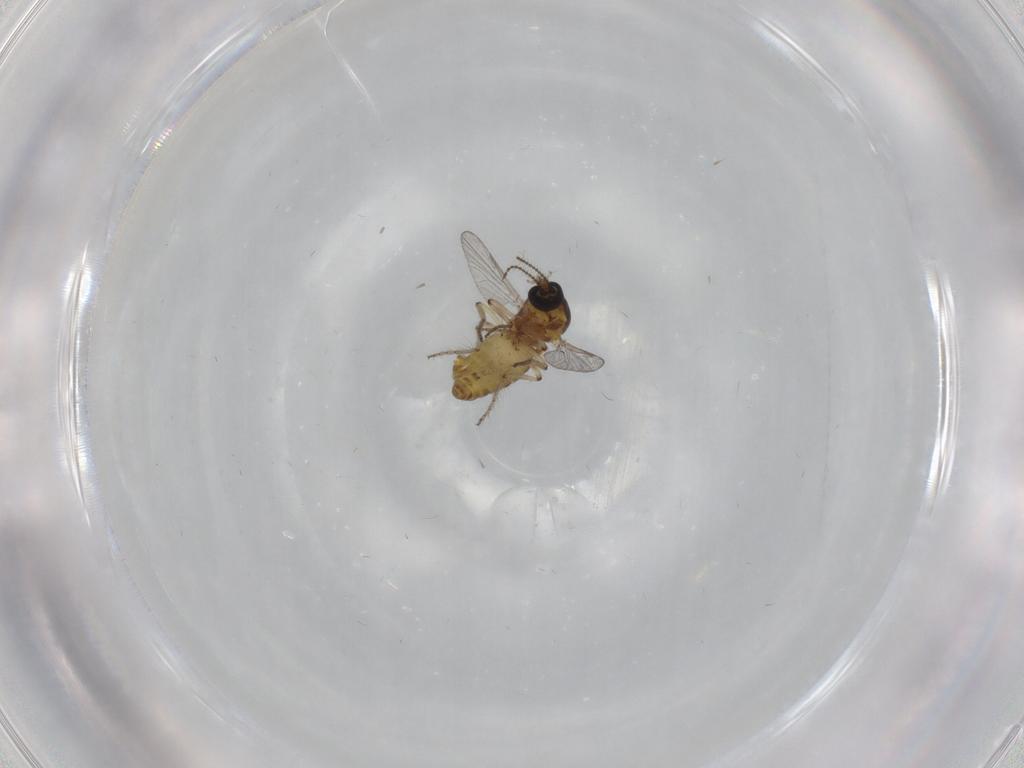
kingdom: Animalia
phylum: Arthropoda
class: Insecta
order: Diptera
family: Ceratopogonidae
